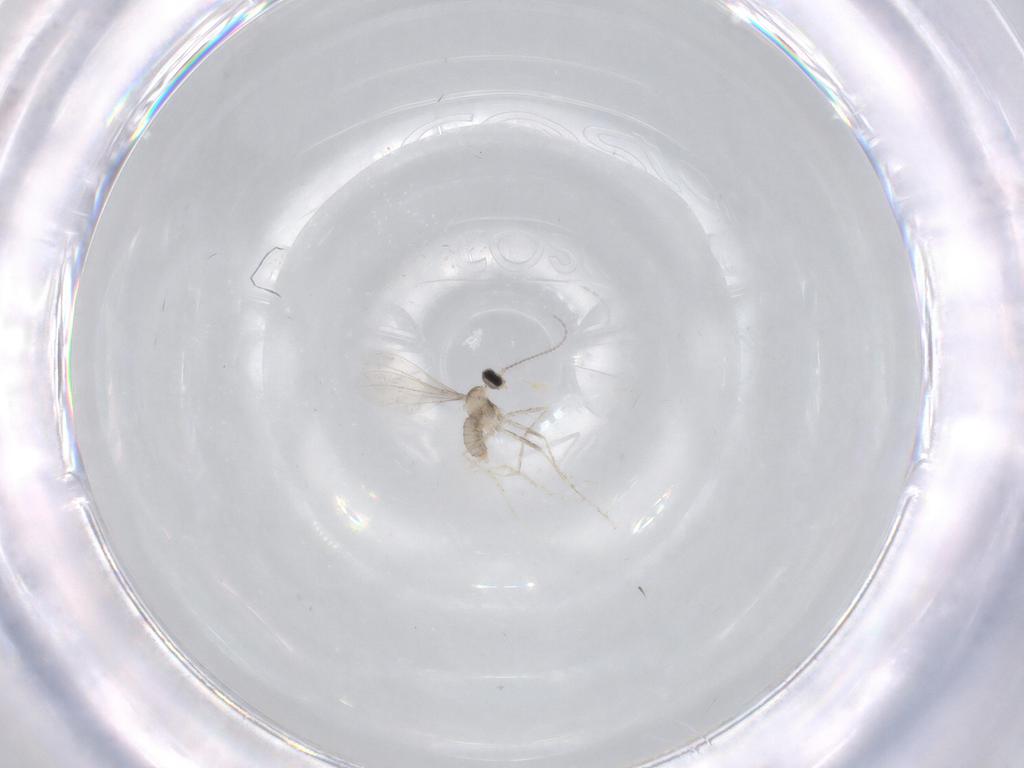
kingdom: Animalia
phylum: Arthropoda
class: Insecta
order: Diptera
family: Cecidomyiidae
